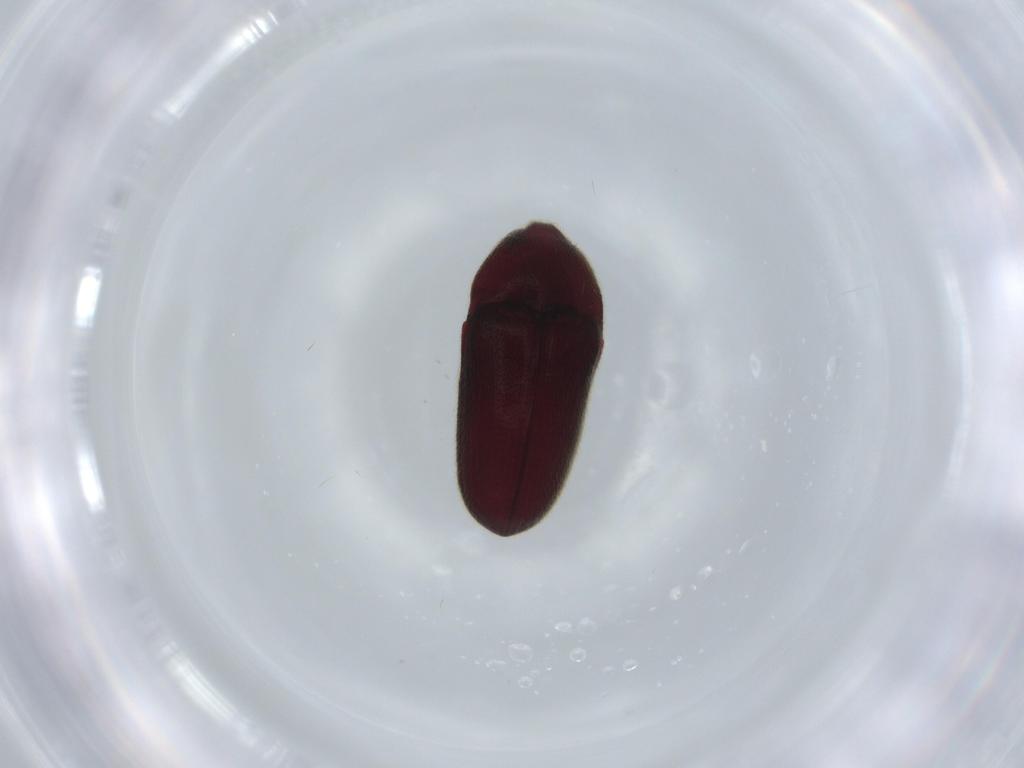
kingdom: Animalia
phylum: Arthropoda
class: Insecta
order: Coleoptera
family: Throscidae
